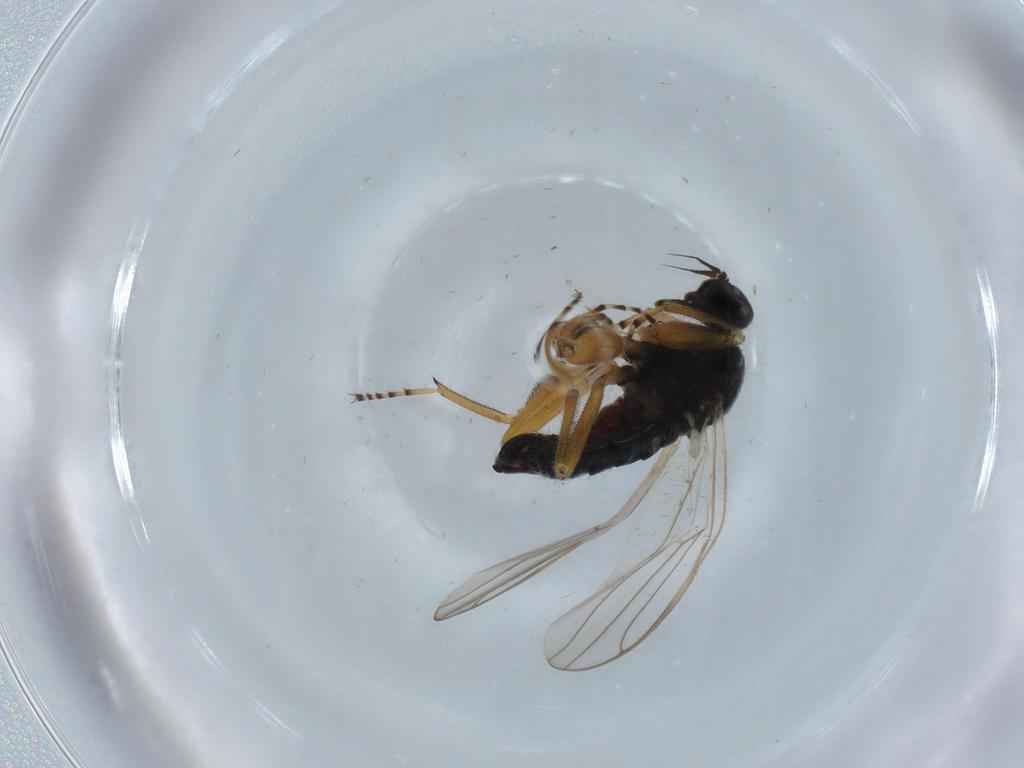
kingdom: Animalia
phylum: Arthropoda
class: Insecta
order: Diptera
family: Hybotidae
